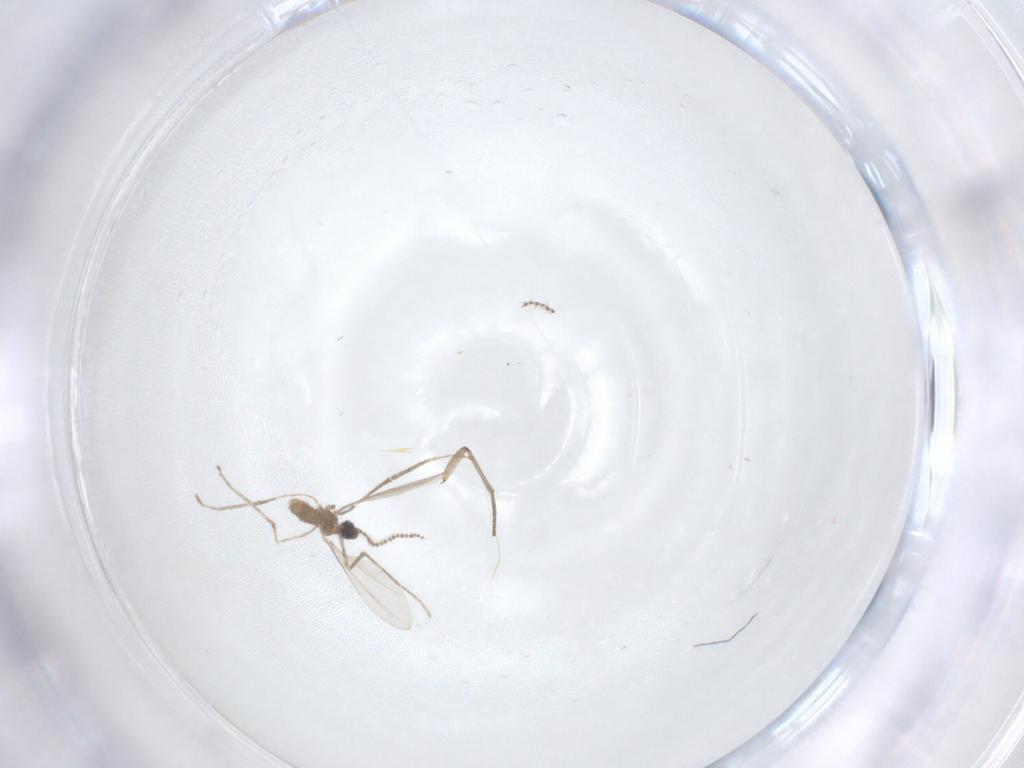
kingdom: Animalia
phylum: Arthropoda
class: Insecta
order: Diptera
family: Cecidomyiidae
